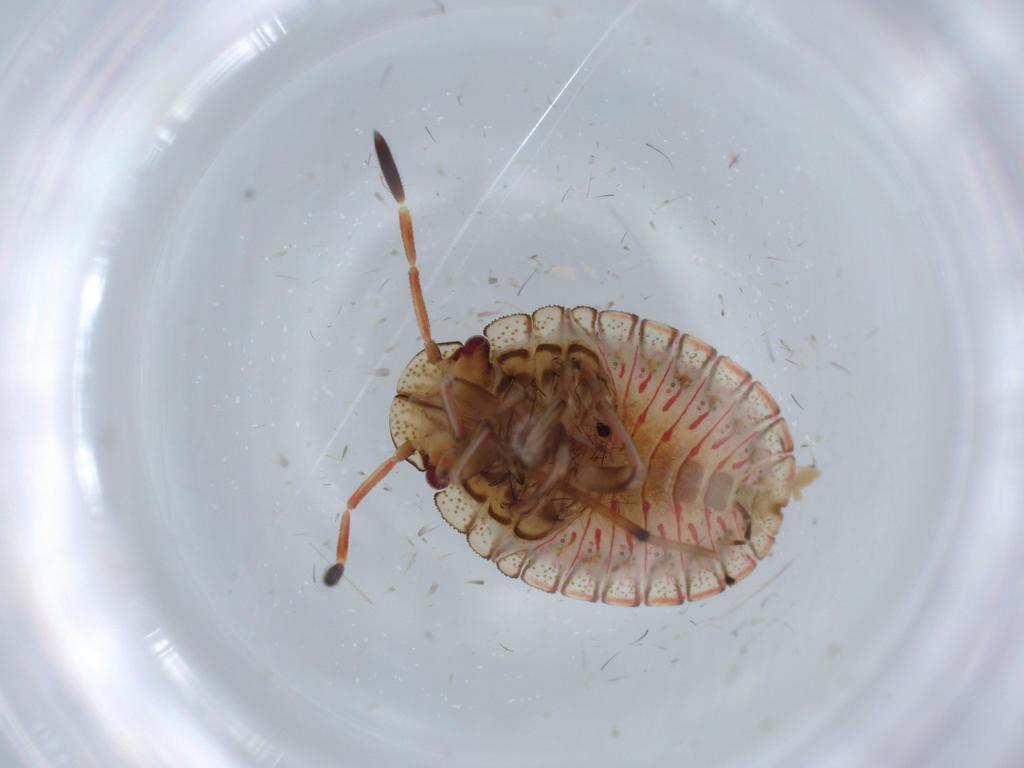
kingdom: Animalia
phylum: Arthropoda
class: Insecta
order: Hemiptera
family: Pentatomidae
